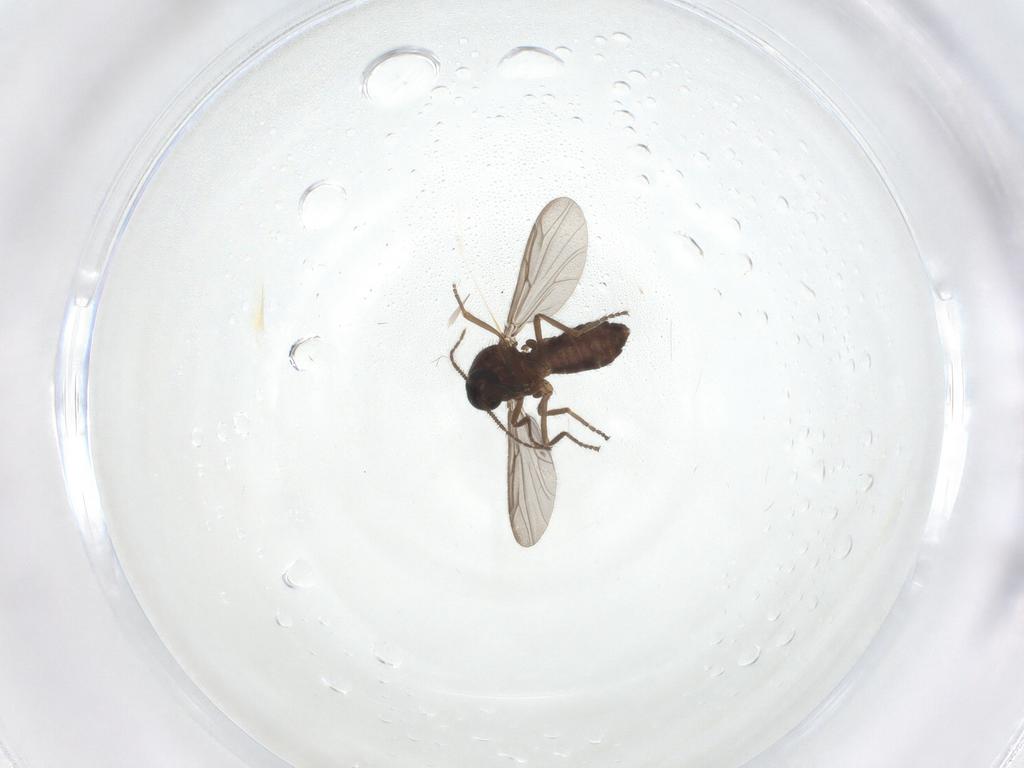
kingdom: Animalia
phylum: Arthropoda
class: Insecta
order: Diptera
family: Ceratopogonidae
